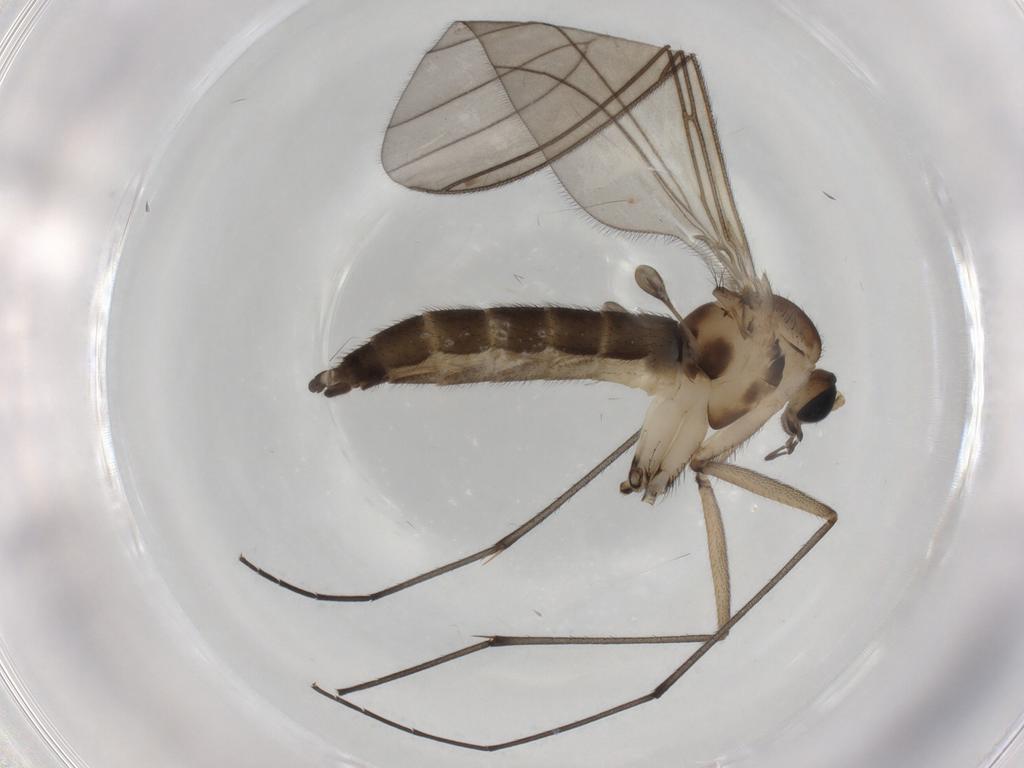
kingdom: Animalia
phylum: Arthropoda
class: Insecta
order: Diptera
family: Sciaridae
